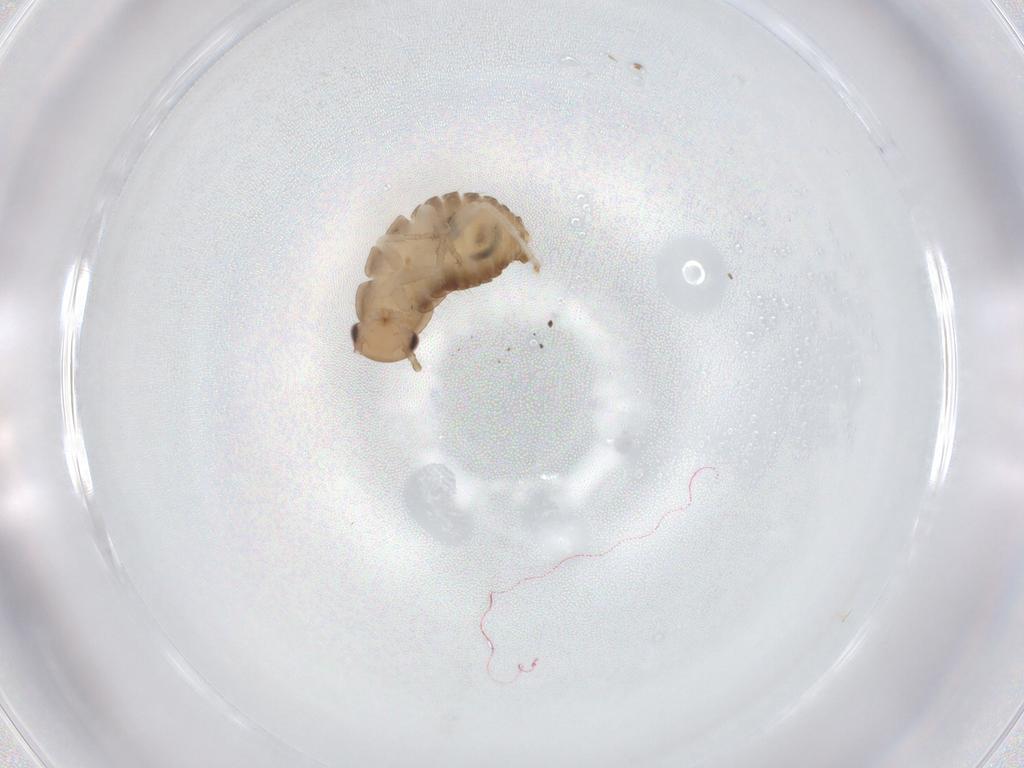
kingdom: Animalia
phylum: Arthropoda
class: Insecta
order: Blattodea
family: Ectobiidae
